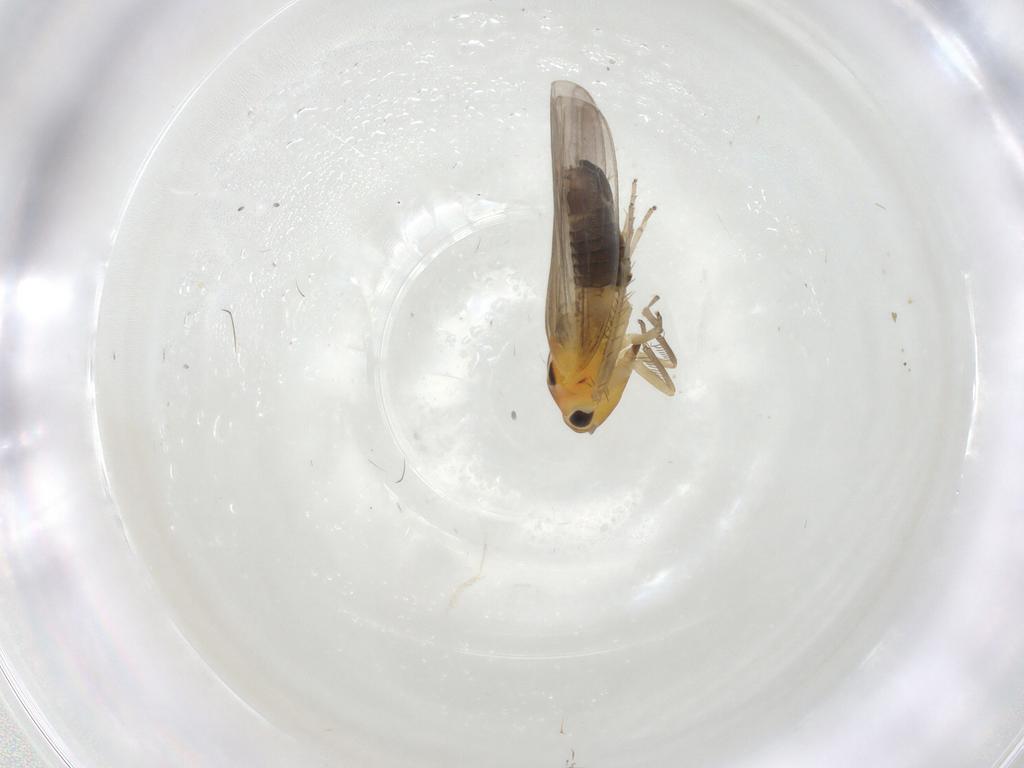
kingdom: Animalia
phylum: Arthropoda
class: Insecta
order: Hemiptera
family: Cicadellidae
